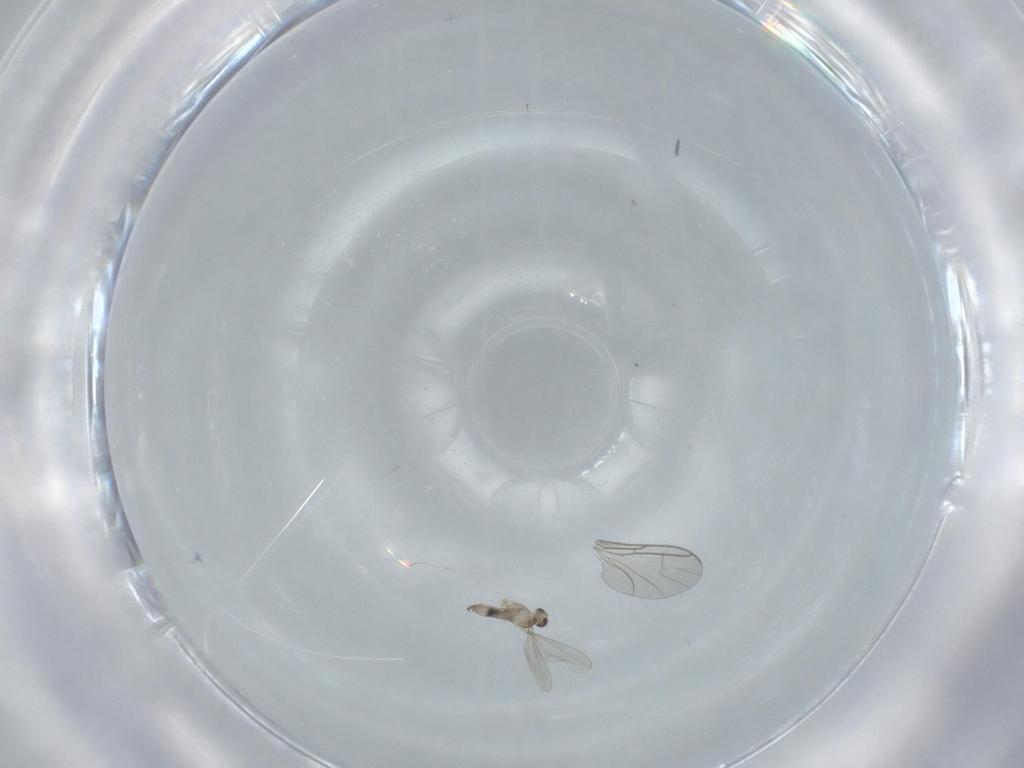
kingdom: Animalia
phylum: Arthropoda
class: Insecta
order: Diptera
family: Cecidomyiidae
